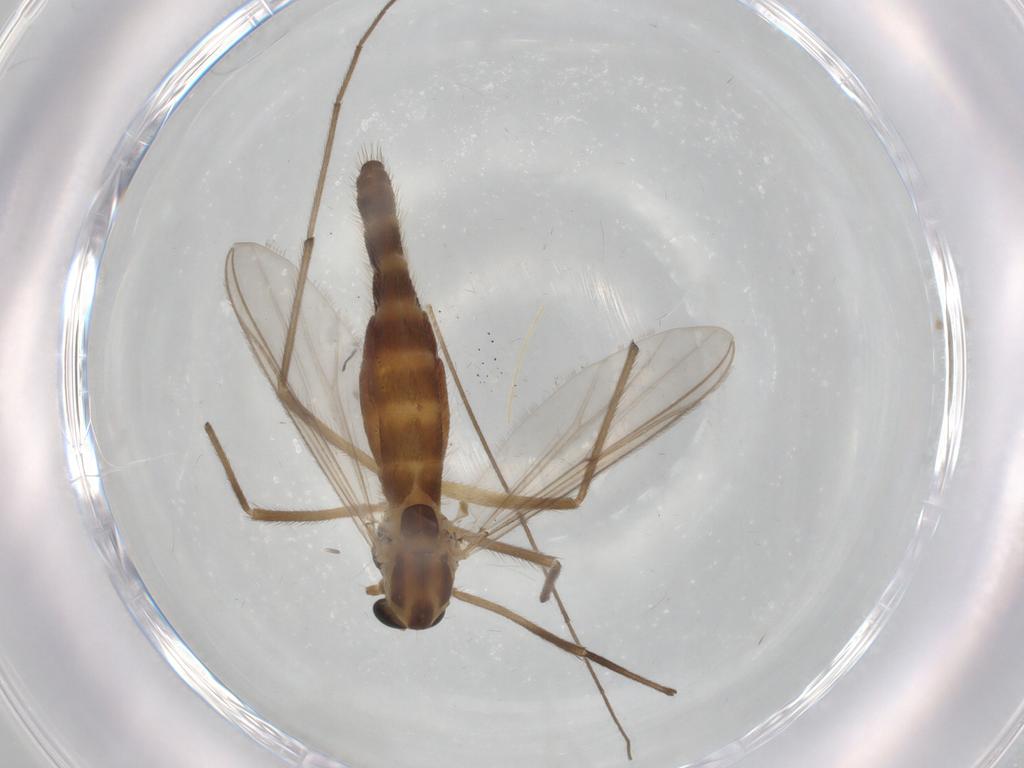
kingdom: Animalia
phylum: Arthropoda
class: Insecta
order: Diptera
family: Chironomidae
